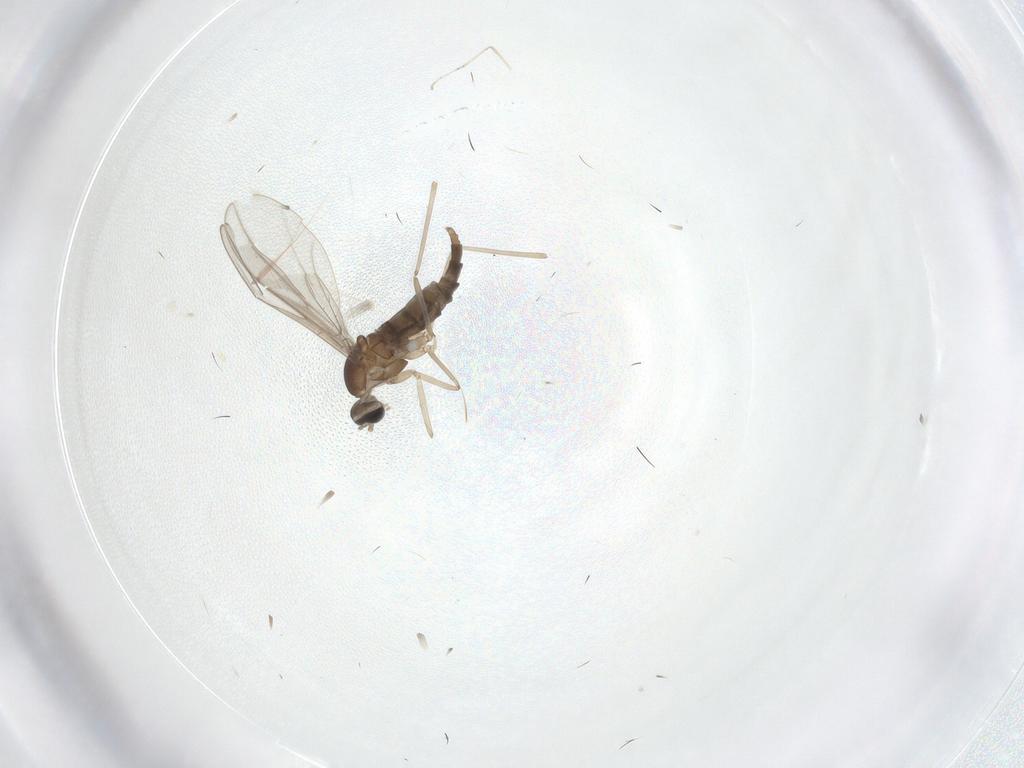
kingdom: Animalia
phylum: Arthropoda
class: Insecta
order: Diptera
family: Cecidomyiidae
